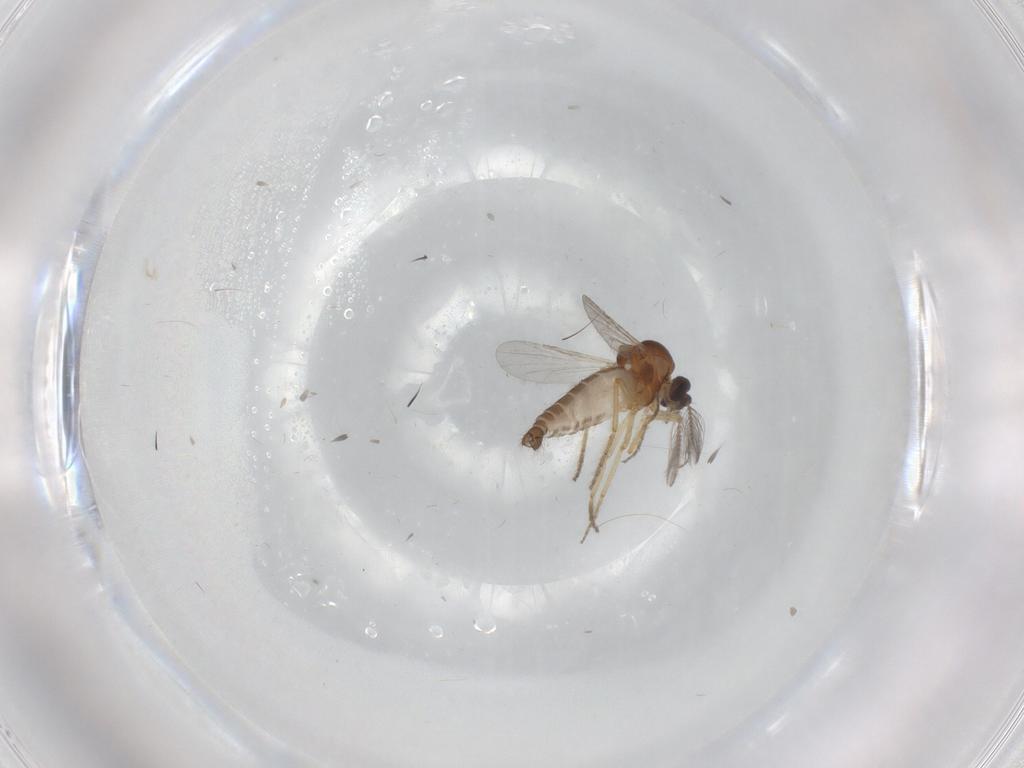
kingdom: Animalia
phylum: Arthropoda
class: Insecta
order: Diptera
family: Ceratopogonidae
